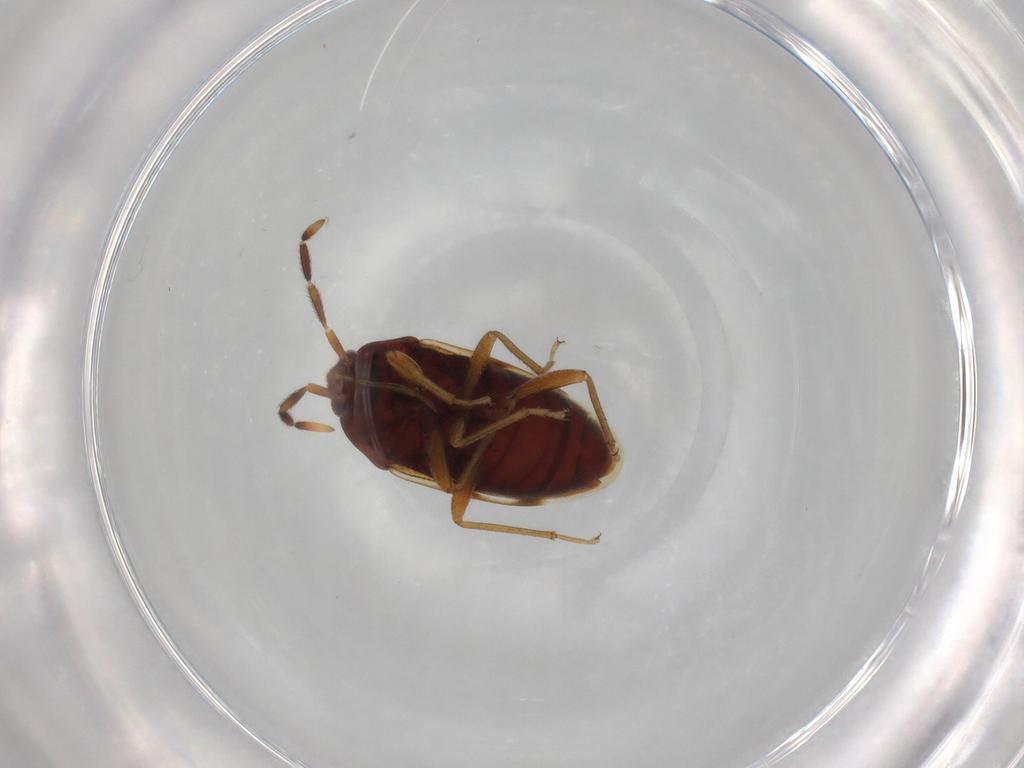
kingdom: Animalia
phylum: Arthropoda
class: Insecta
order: Hemiptera
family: Rhyparochromidae
